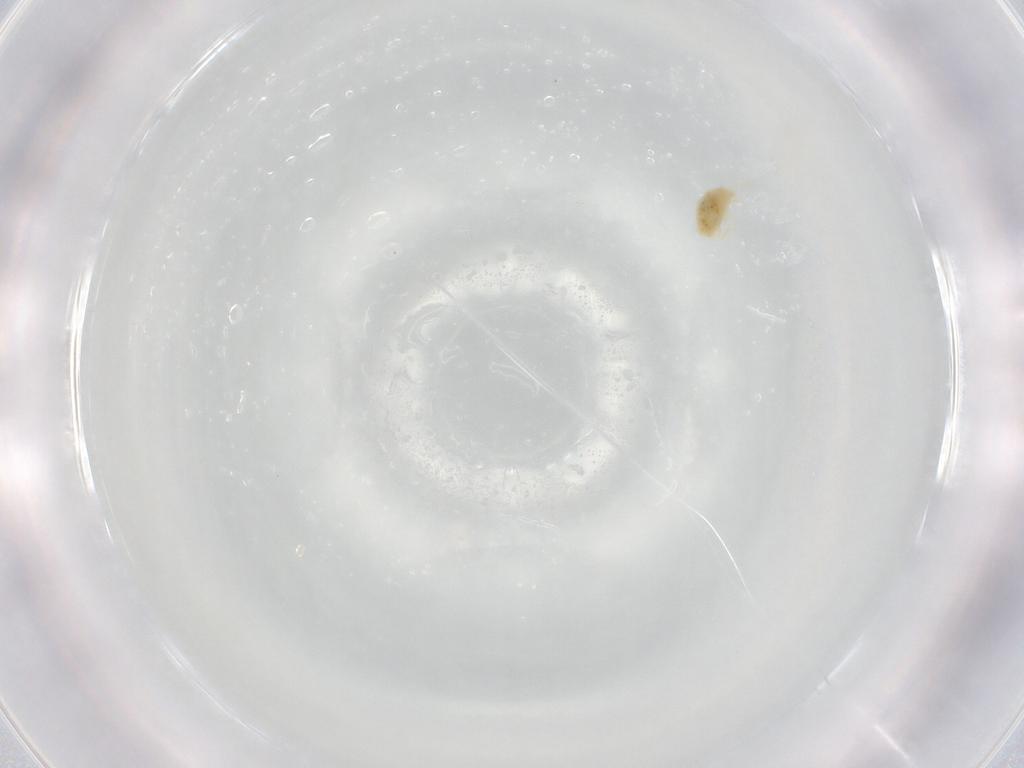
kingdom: Animalia
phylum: Arthropoda
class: Arachnida
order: Trombidiformes
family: Tetranychidae
